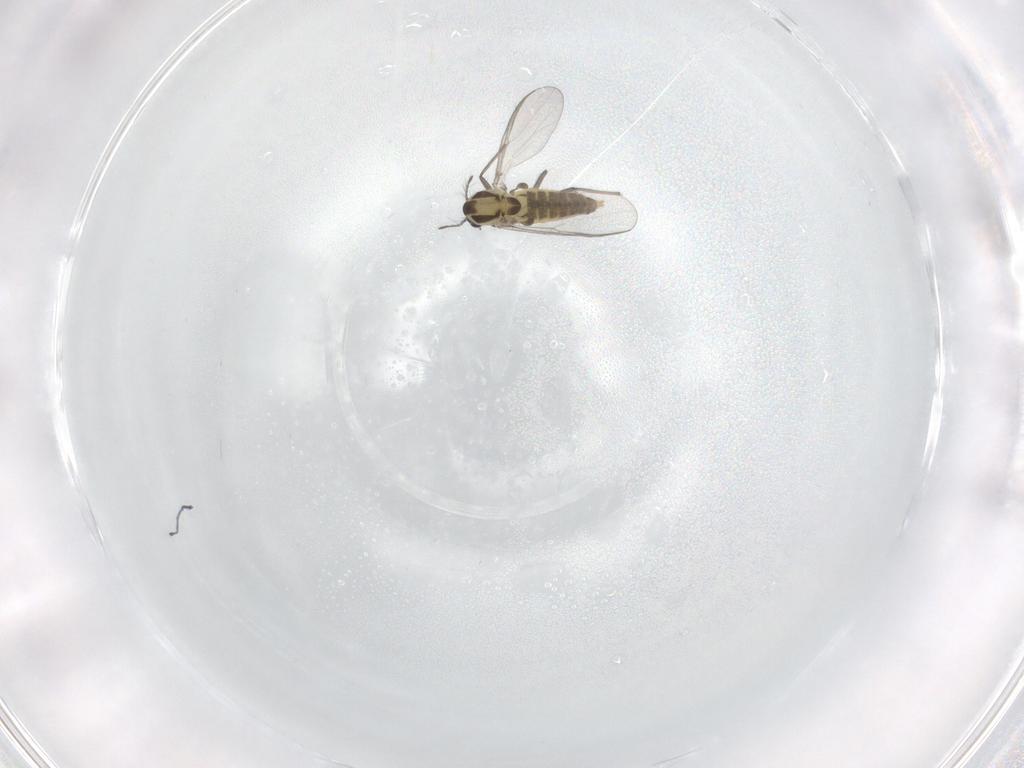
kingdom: Animalia
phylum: Arthropoda
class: Insecta
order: Diptera
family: Chironomidae
